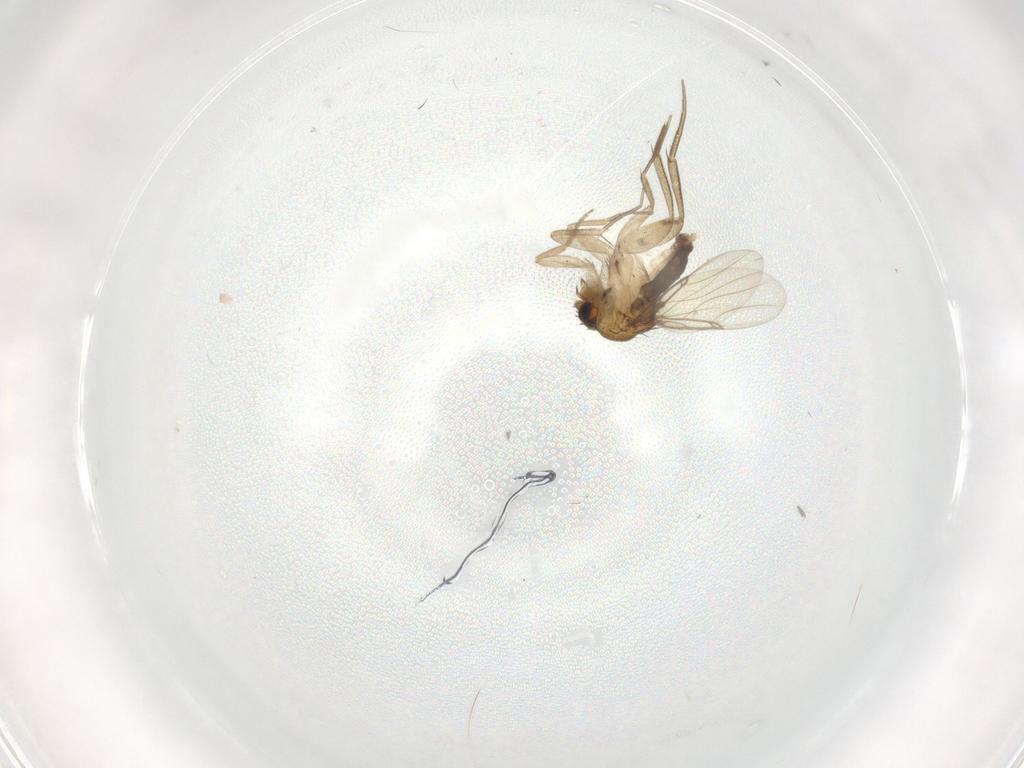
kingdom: Animalia
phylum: Arthropoda
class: Insecta
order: Diptera
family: Phoridae
